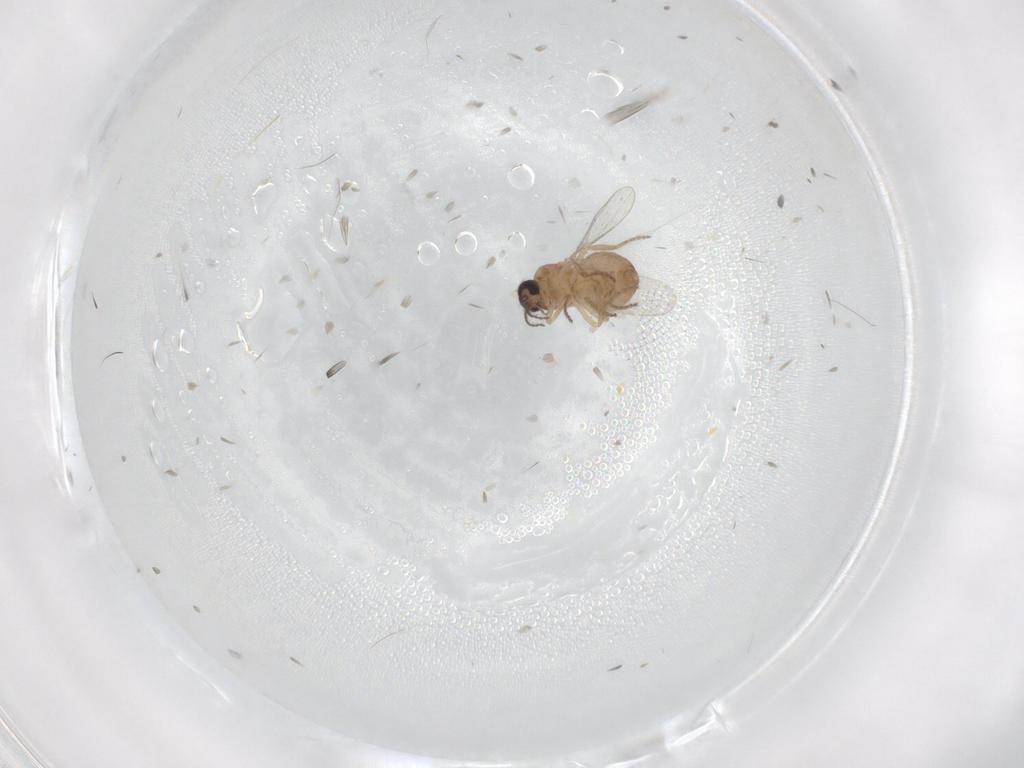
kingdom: Animalia
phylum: Arthropoda
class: Insecta
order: Diptera
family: Ceratopogonidae
